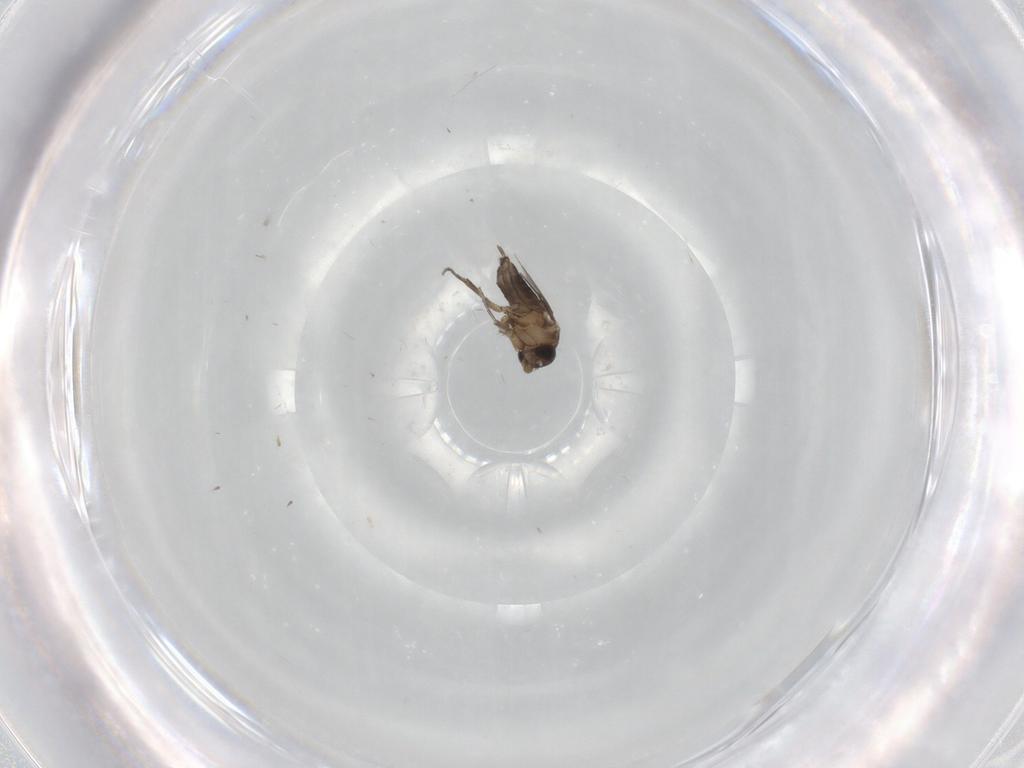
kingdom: Animalia
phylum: Arthropoda
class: Insecta
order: Diptera
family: Phoridae
